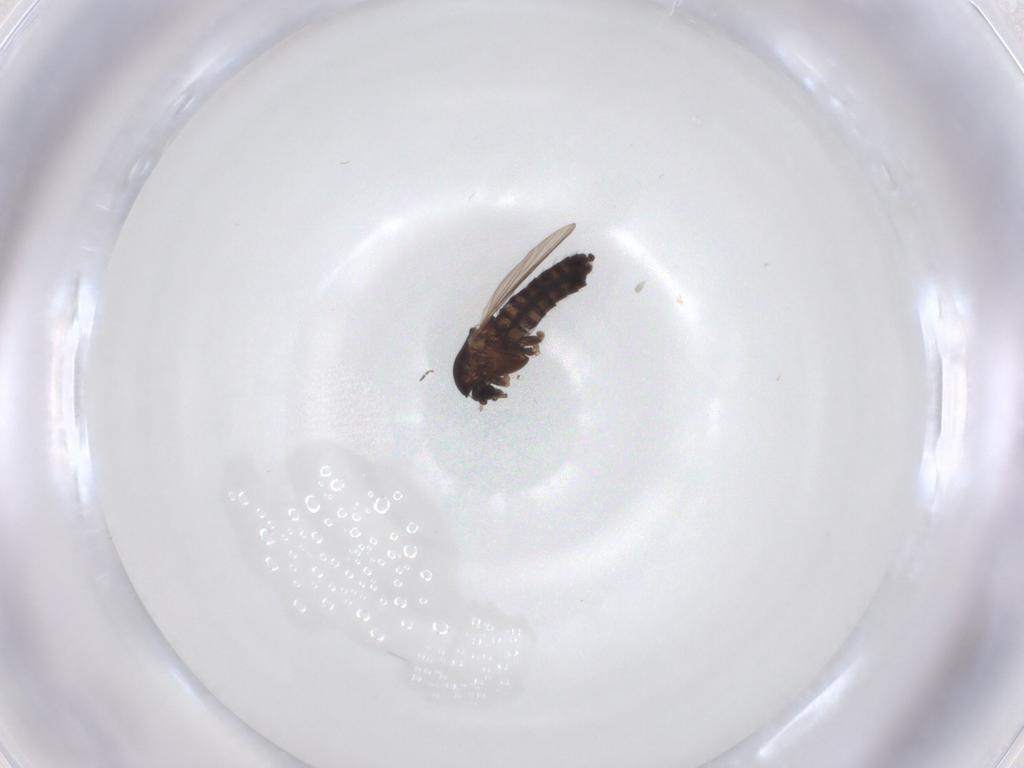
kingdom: Animalia
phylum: Arthropoda
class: Insecta
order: Diptera
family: Chironomidae
